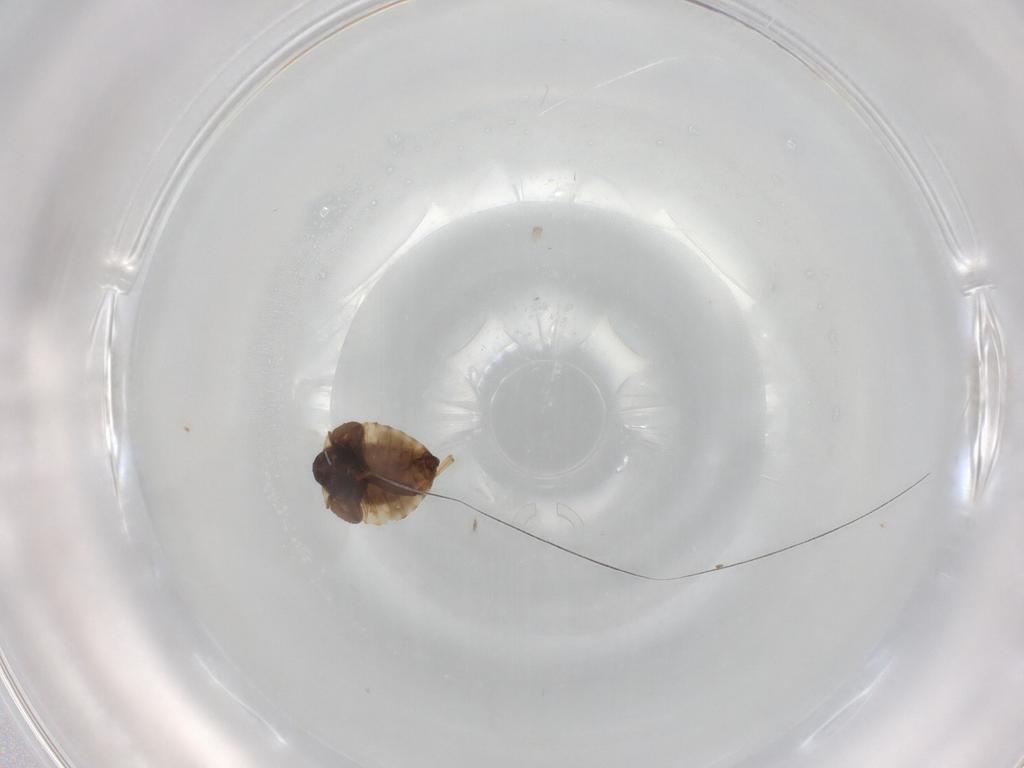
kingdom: Animalia
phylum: Arthropoda
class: Insecta
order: Hemiptera
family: Tingidae
